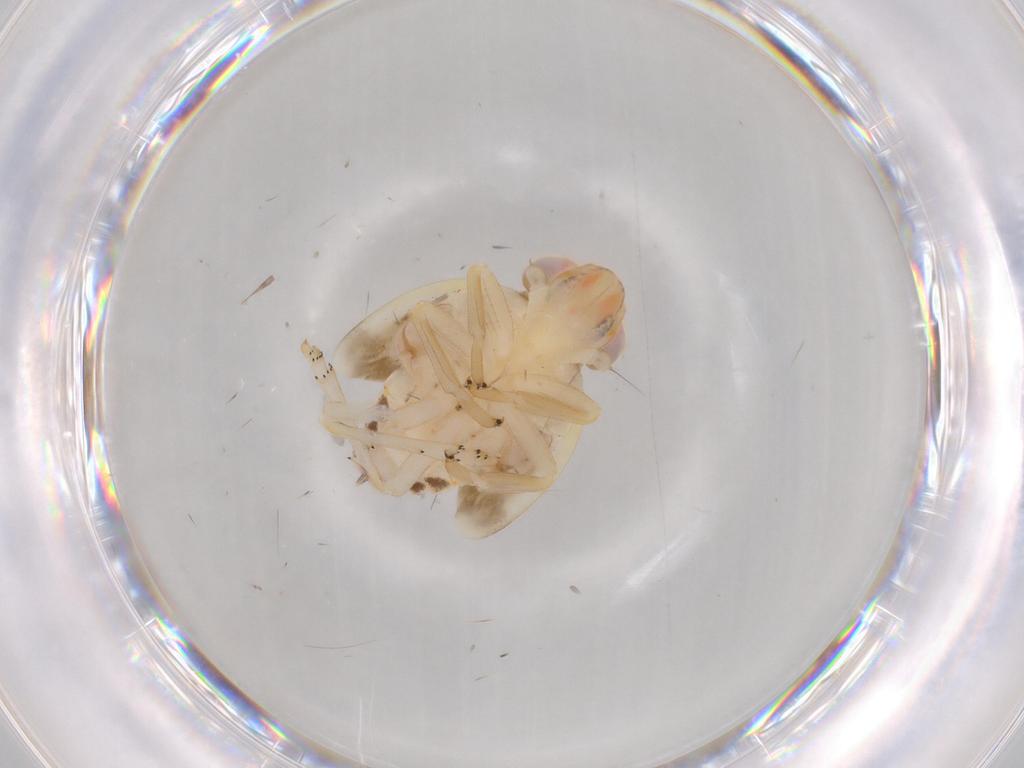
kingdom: Animalia
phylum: Arthropoda
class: Insecta
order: Hemiptera
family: Nogodinidae
